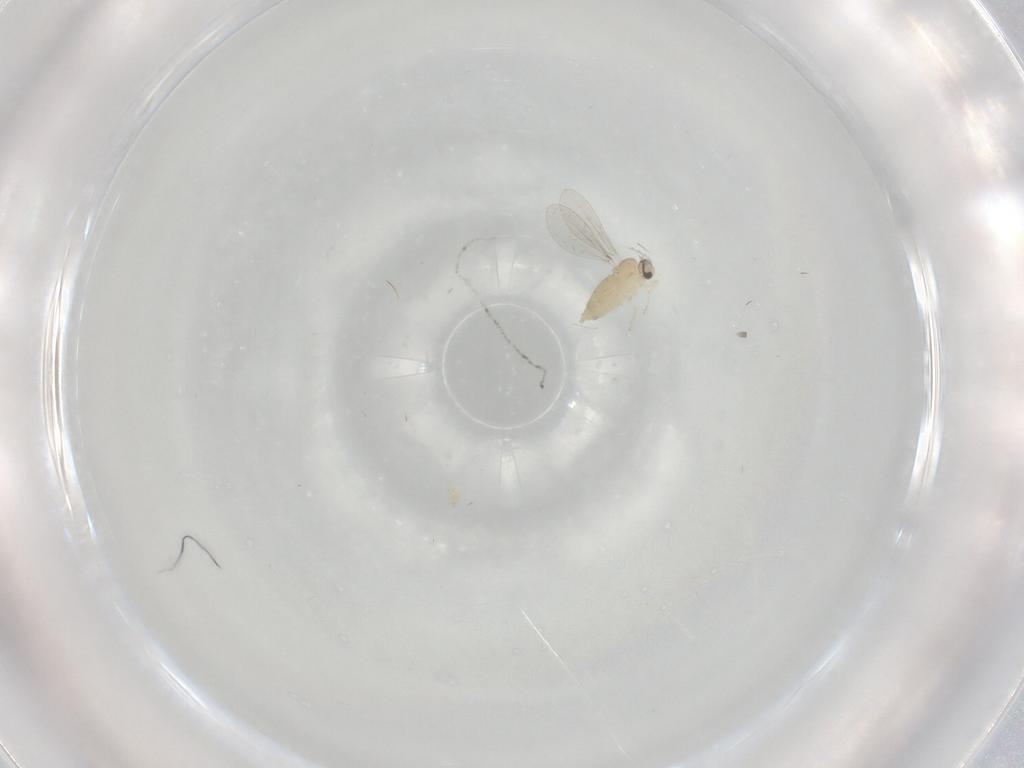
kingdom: Animalia
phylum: Arthropoda
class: Insecta
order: Diptera
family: Cecidomyiidae
